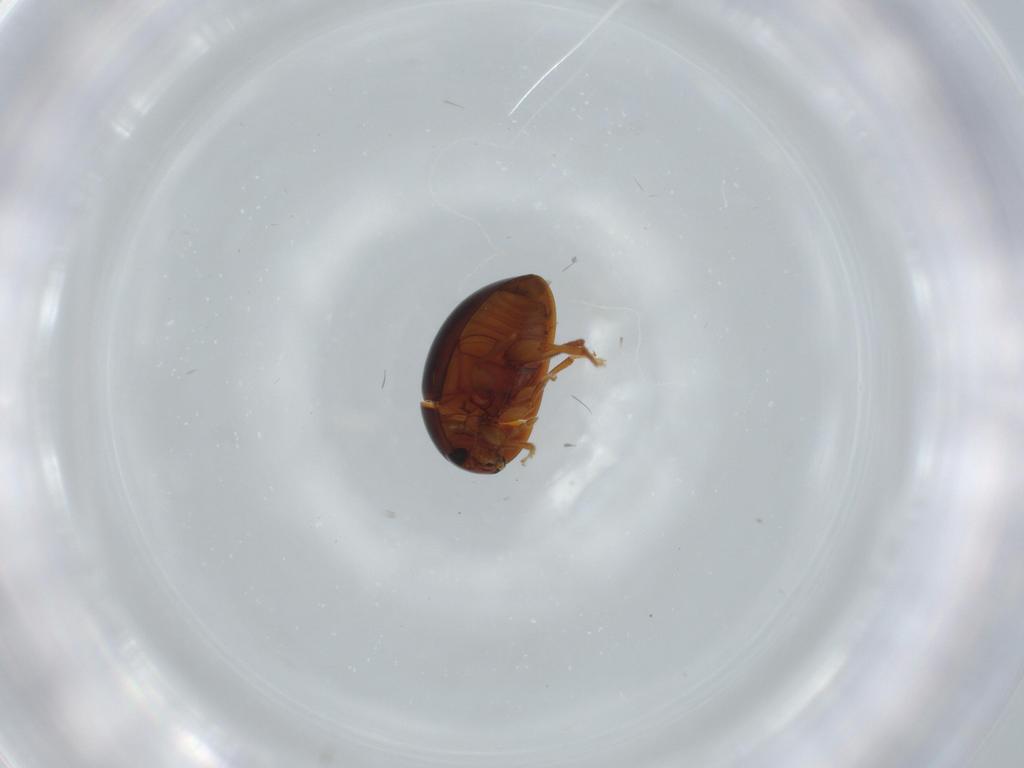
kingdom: Animalia
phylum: Arthropoda
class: Insecta
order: Coleoptera
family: Phalacridae
